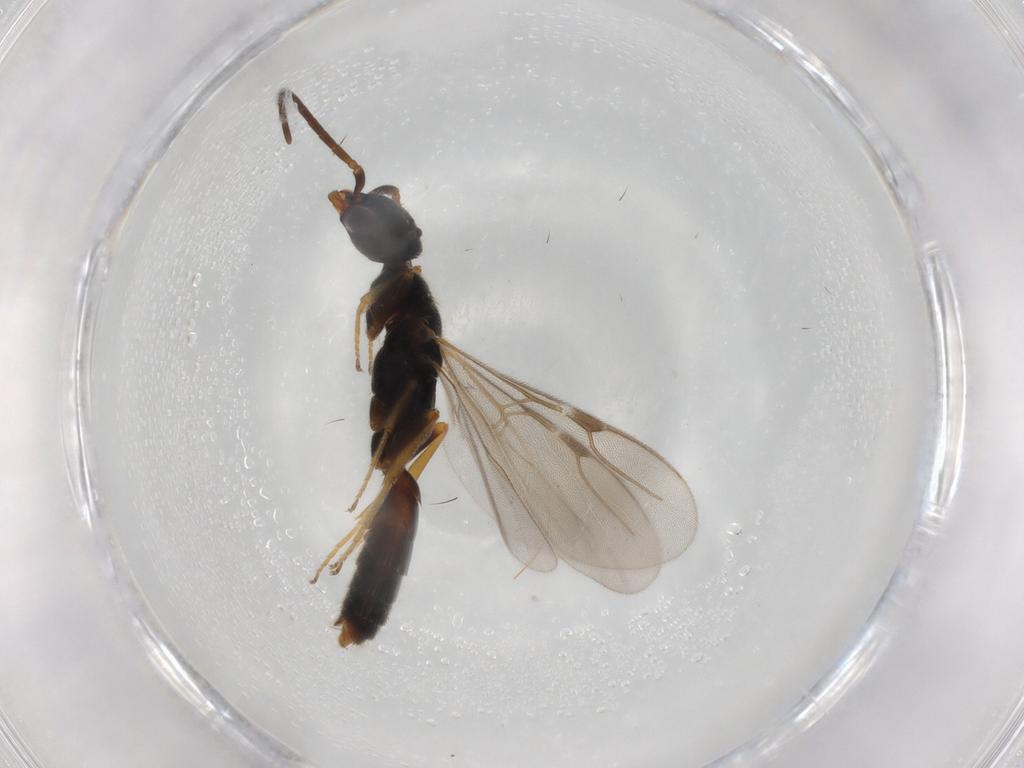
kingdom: Animalia
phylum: Arthropoda
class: Insecta
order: Hymenoptera
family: Bethylidae
